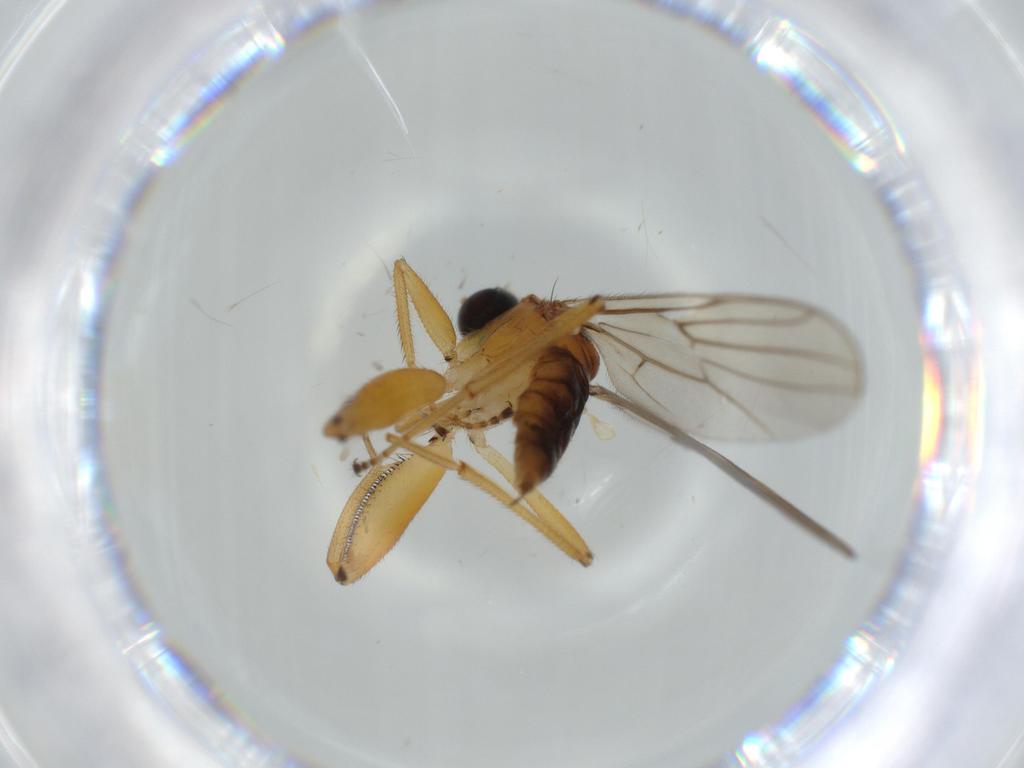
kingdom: Animalia
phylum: Arthropoda
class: Insecta
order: Diptera
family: Hybotidae
